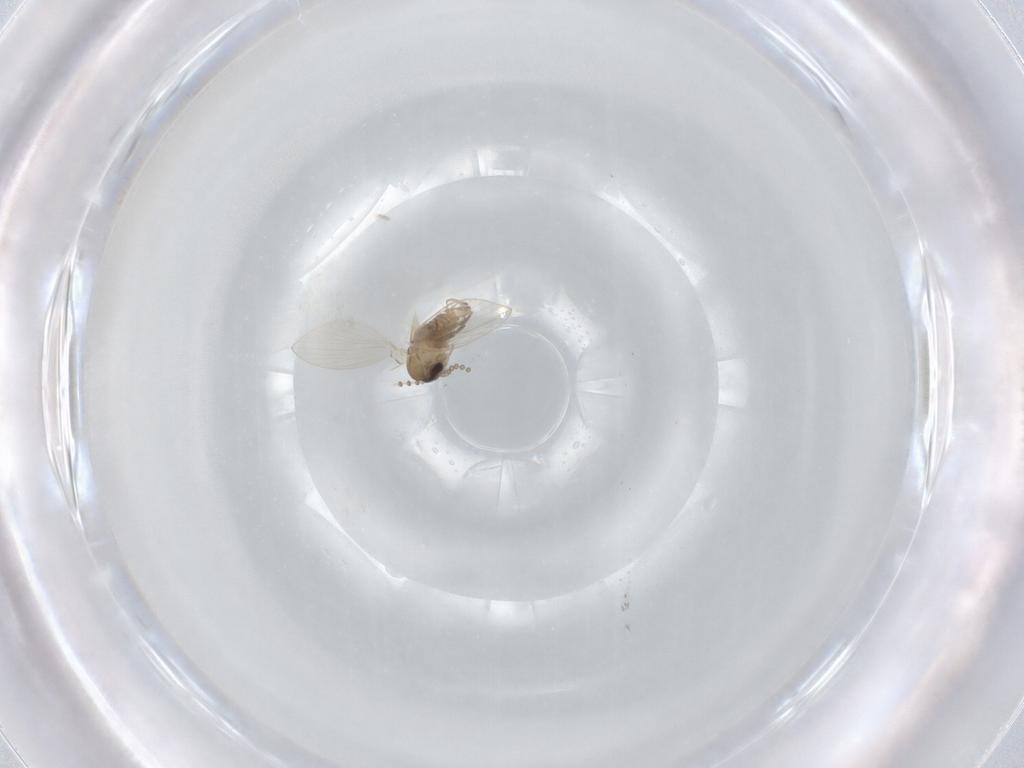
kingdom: Animalia
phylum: Arthropoda
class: Insecta
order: Diptera
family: Psychodidae
